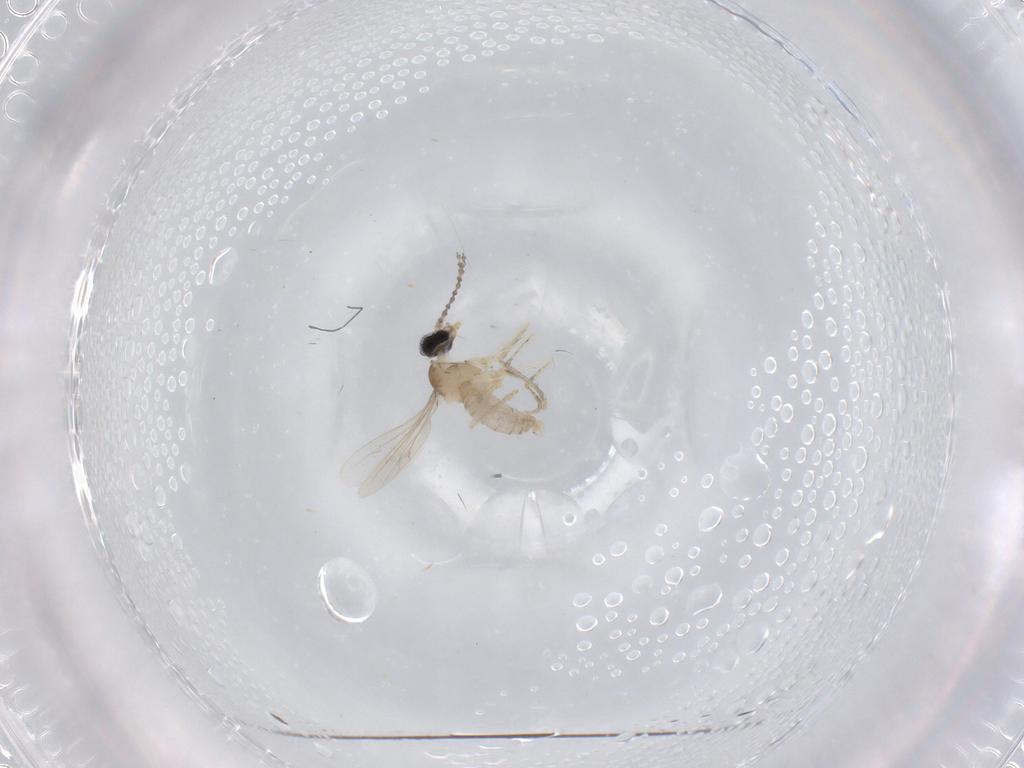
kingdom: Animalia
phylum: Arthropoda
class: Insecta
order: Diptera
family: Cecidomyiidae
